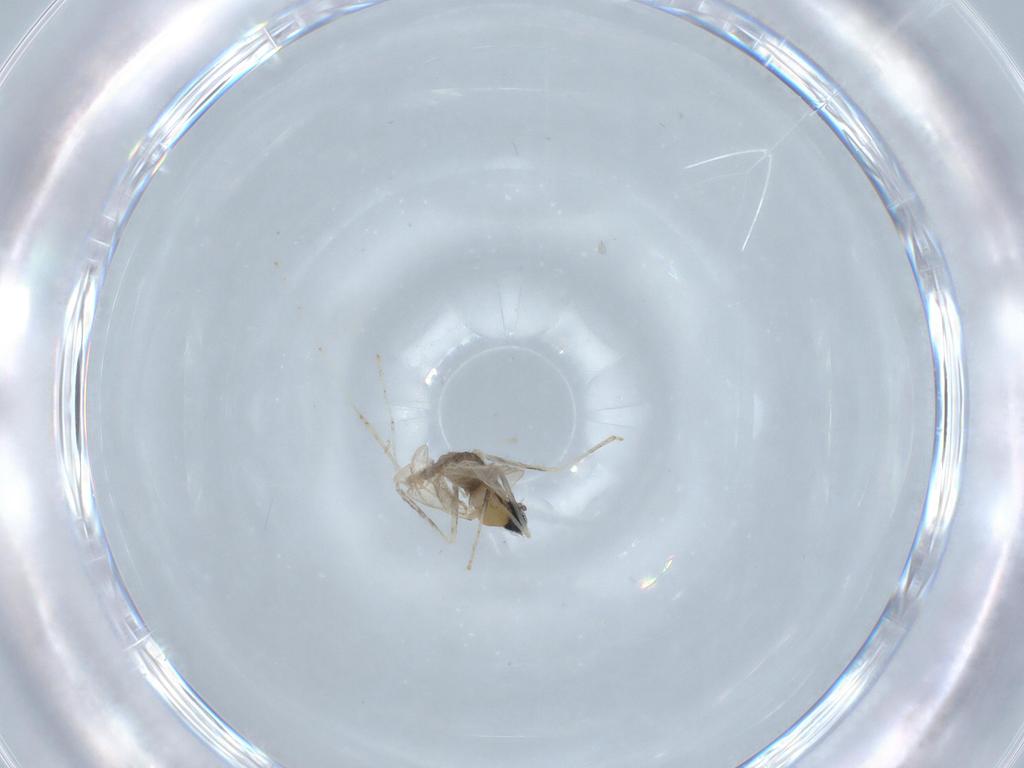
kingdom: Animalia
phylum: Arthropoda
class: Insecta
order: Diptera
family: Cecidomyiidae
